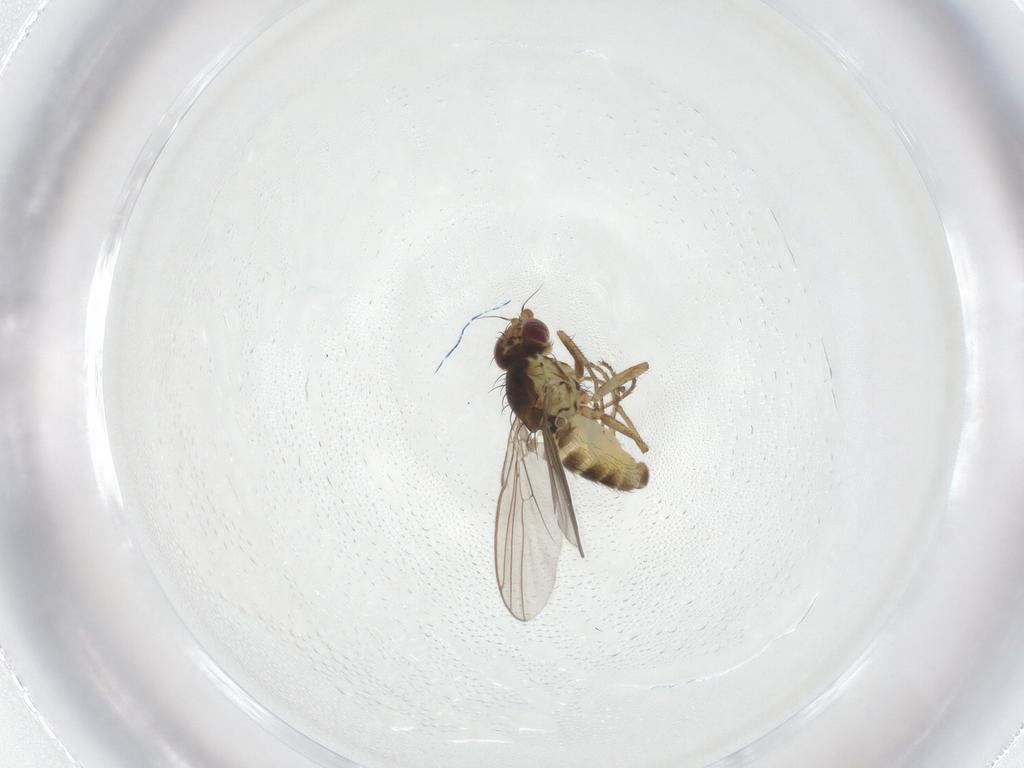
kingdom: Animalia
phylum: Arthropoda
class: Insecta
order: Diptera
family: Agromyzidae
